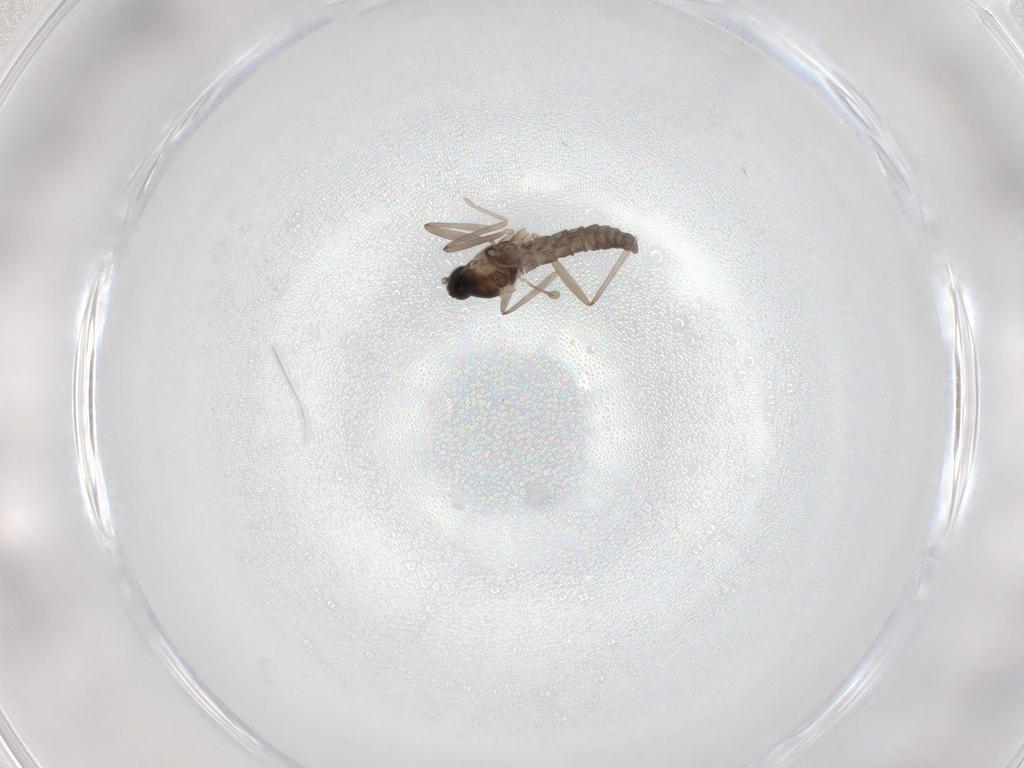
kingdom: Animalia
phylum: Arthropoda
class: Insecta
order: Diptera
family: Cecidomyiidae
